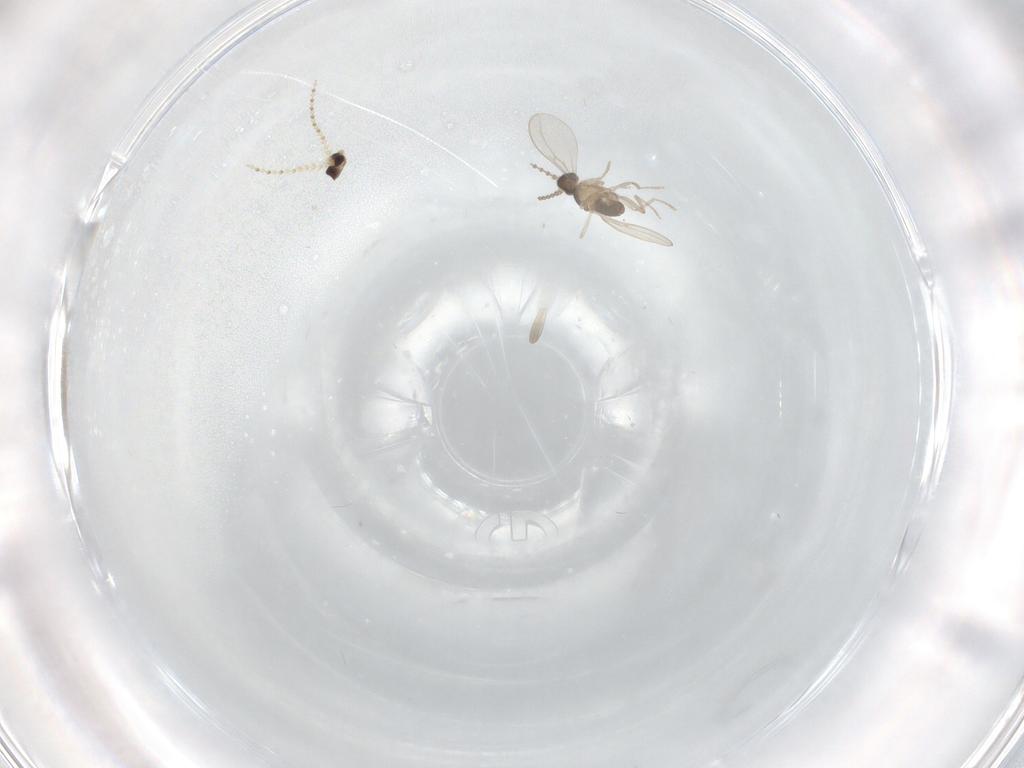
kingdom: Animalia
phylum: Arthropoda
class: Insecta
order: Diptera
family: Cecidomyiidae
